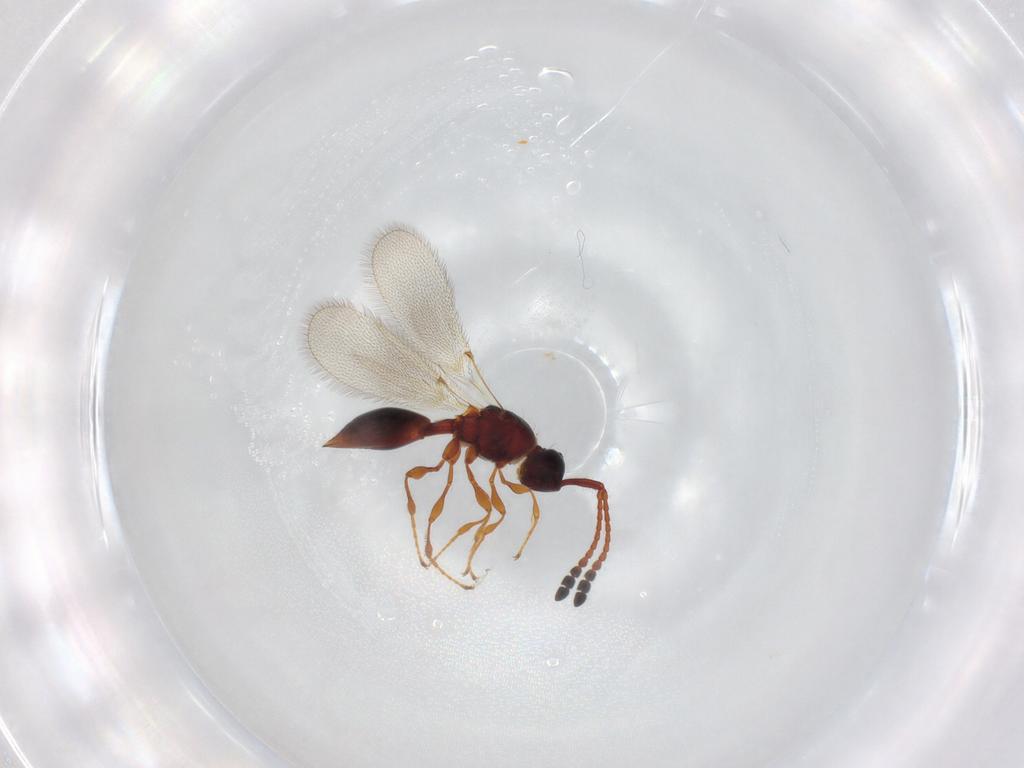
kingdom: Animalia
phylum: Arthropoda
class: Insecta
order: Hymenoptera
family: Diapriidae
